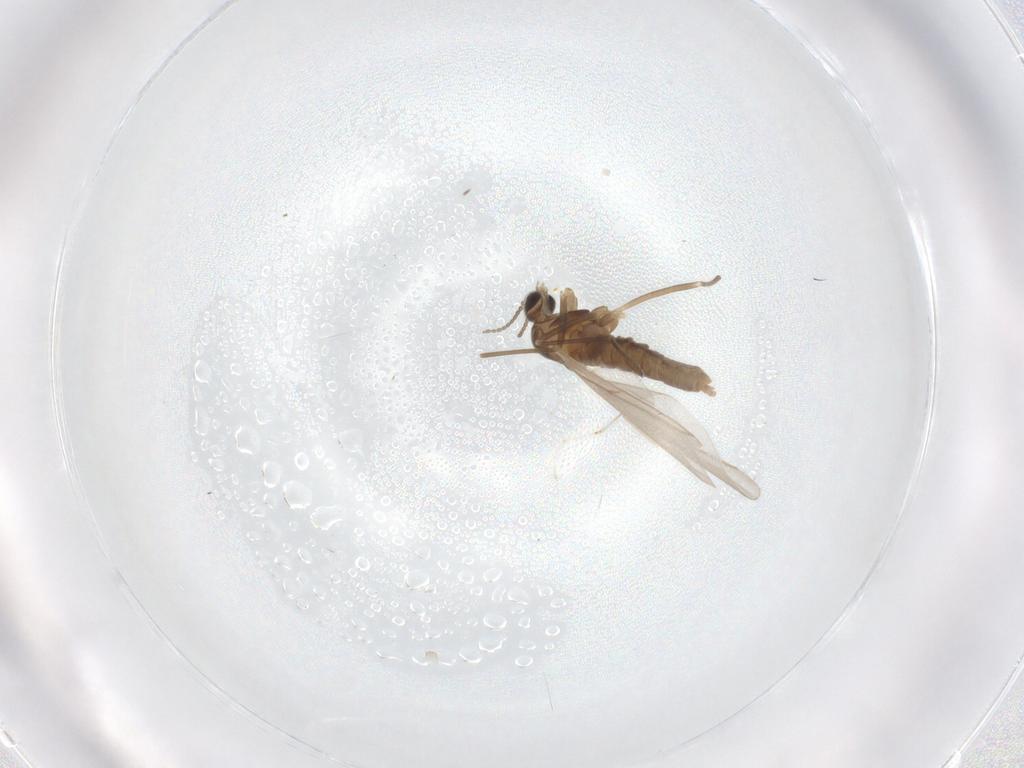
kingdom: Animalia
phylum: Arthropoda
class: Insecta
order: Diptera
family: Cecidomyiidae
